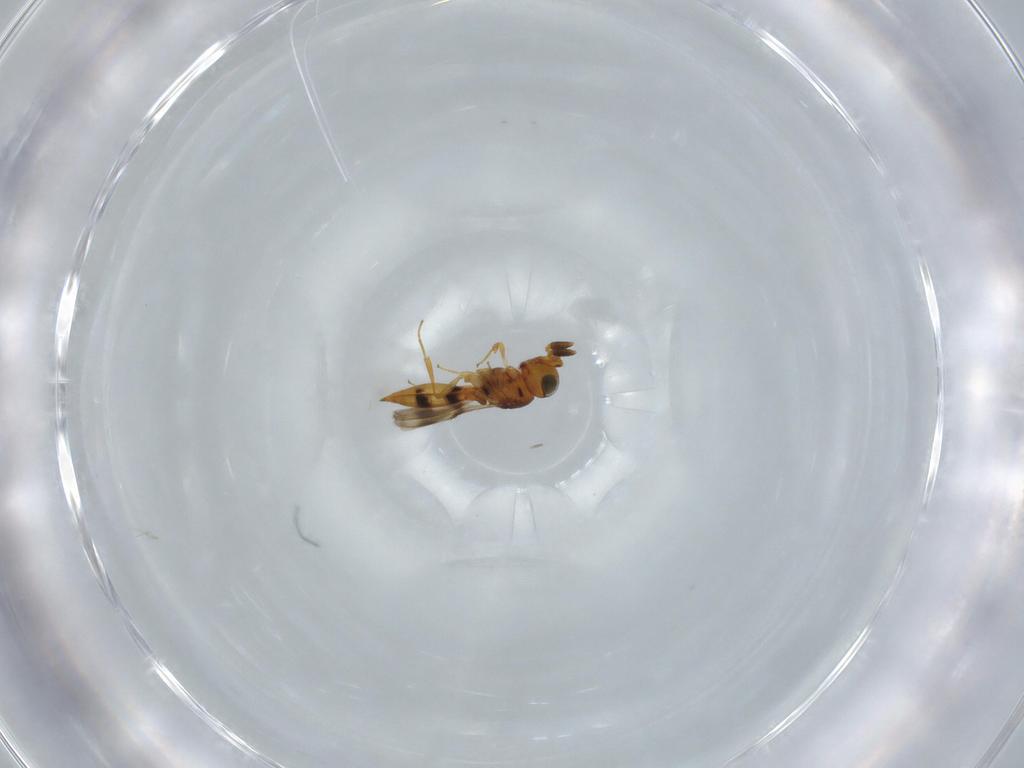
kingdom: Animalia
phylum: Arthropoda
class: Insecta
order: Hymenoptera
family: Scelionidae
